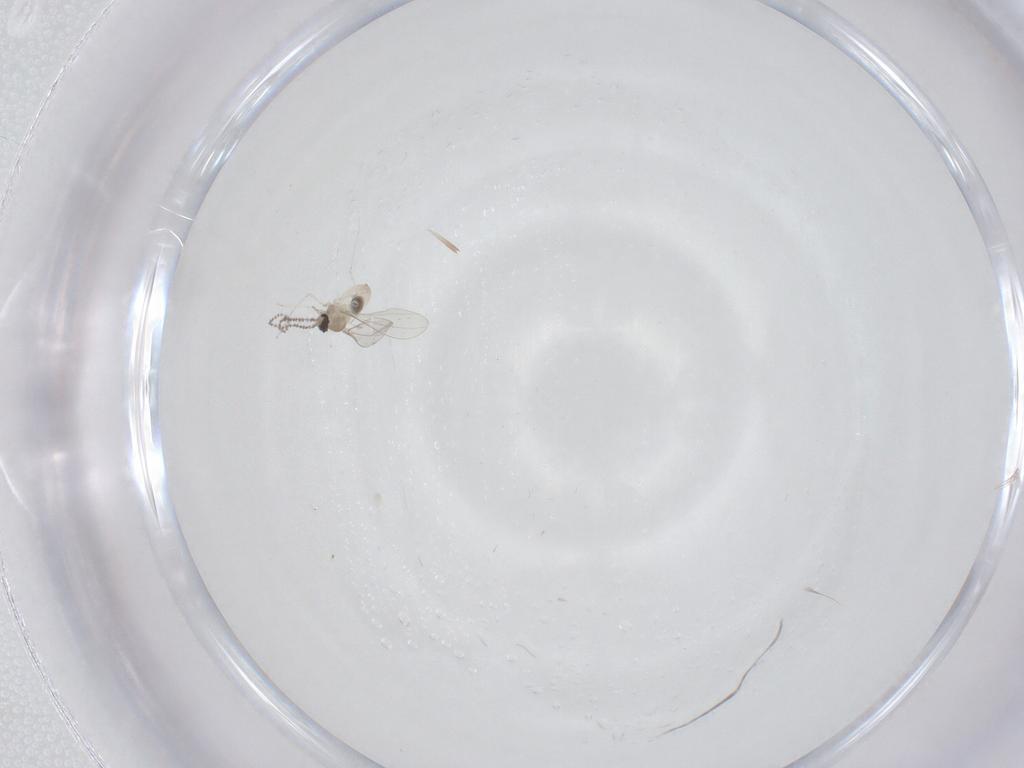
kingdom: Animalia
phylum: Arthropoda
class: Insecta
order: Diptera
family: Cecidomyiidae
